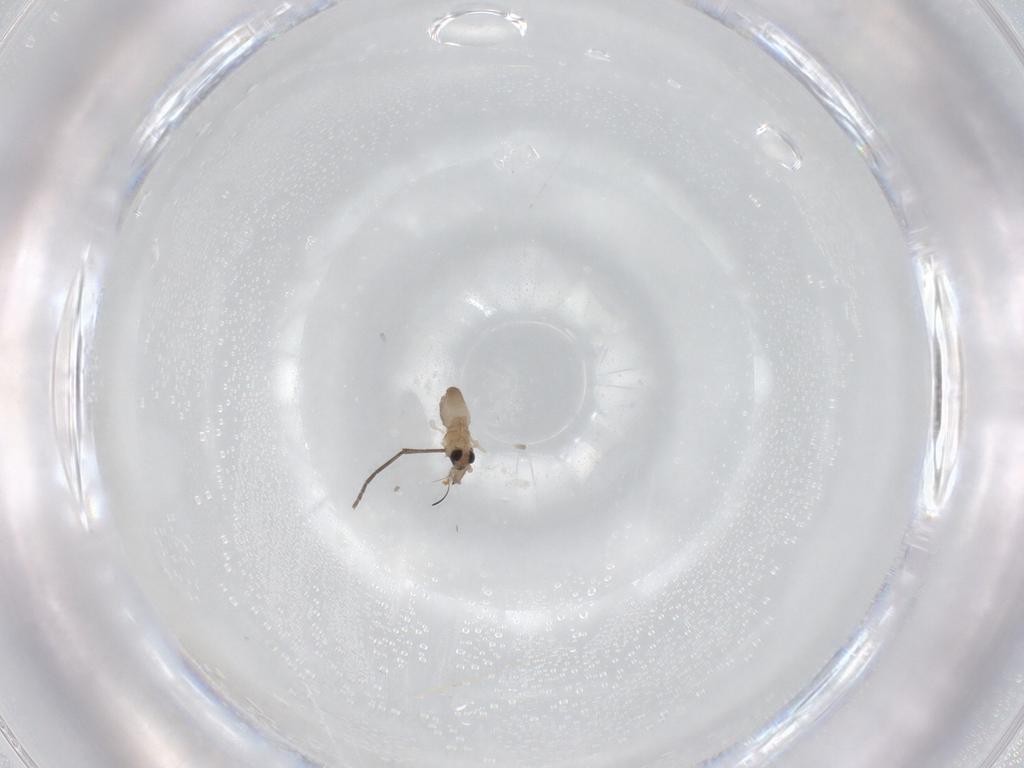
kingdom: Animalia
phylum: Arthropoda
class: Insecta
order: Diptera
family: Cecidomyiidae
